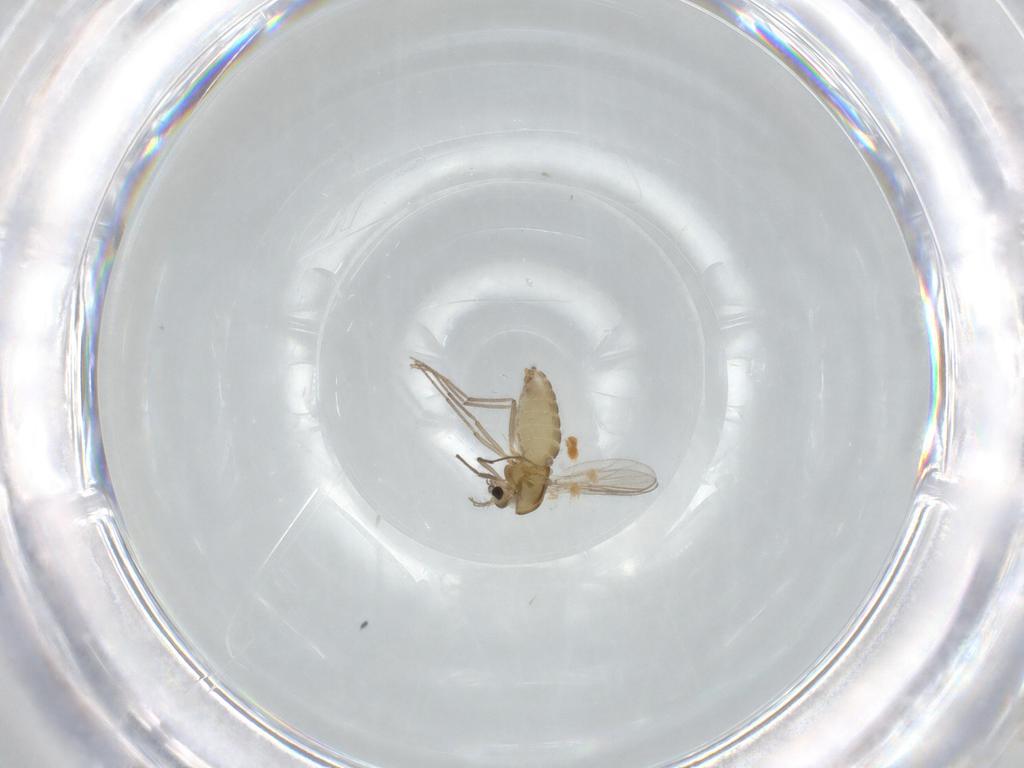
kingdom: Animalia
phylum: Arthropoda
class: Insecta
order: Diptera
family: Chironomidae
